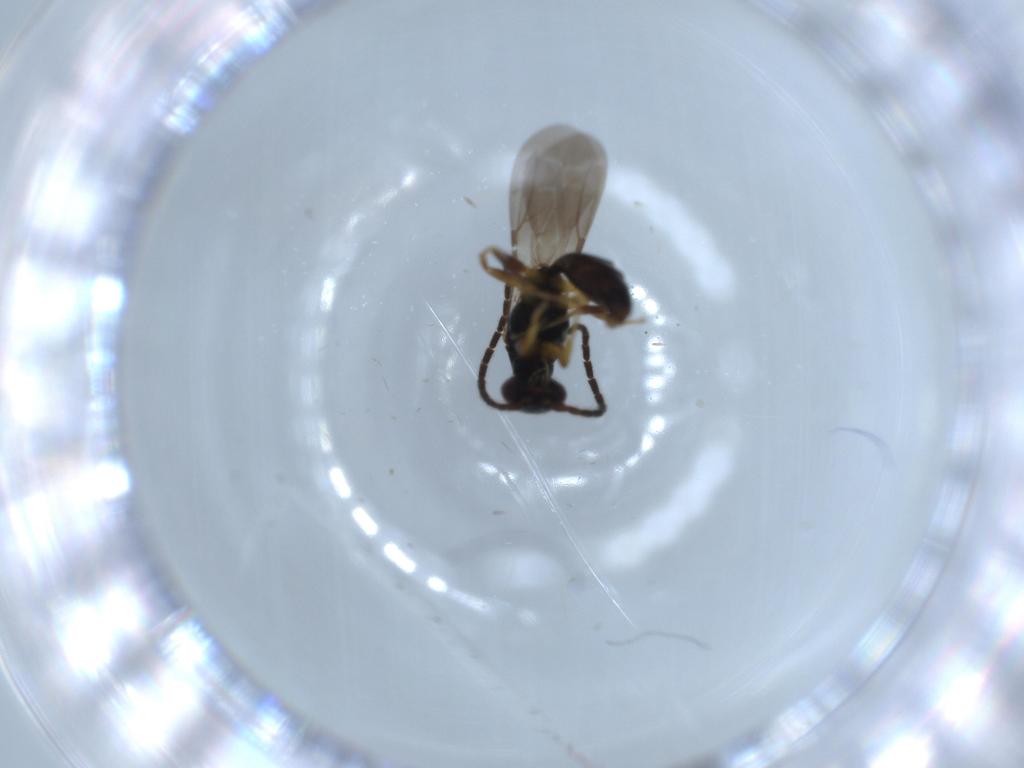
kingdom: Animalia
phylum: Arthropoda
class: Insecta
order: Hymenoptera
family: Bethylidae
